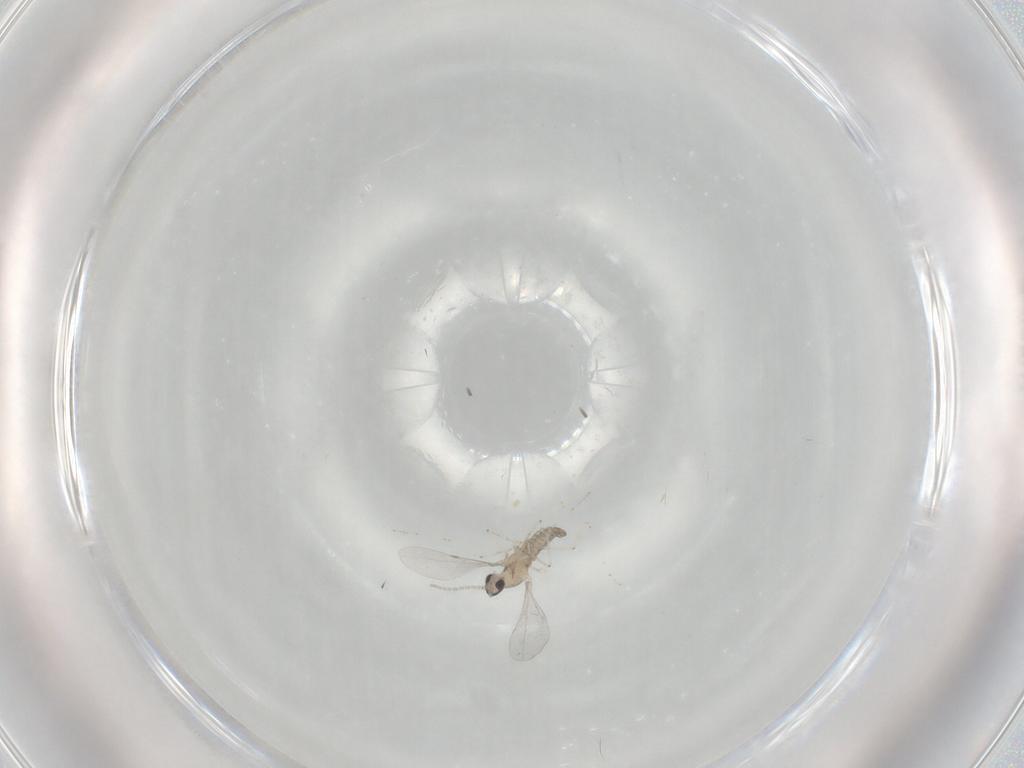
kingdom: Animalia
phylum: Arthropoda
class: Insecta
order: Diptera
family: Cecidomyiidae
